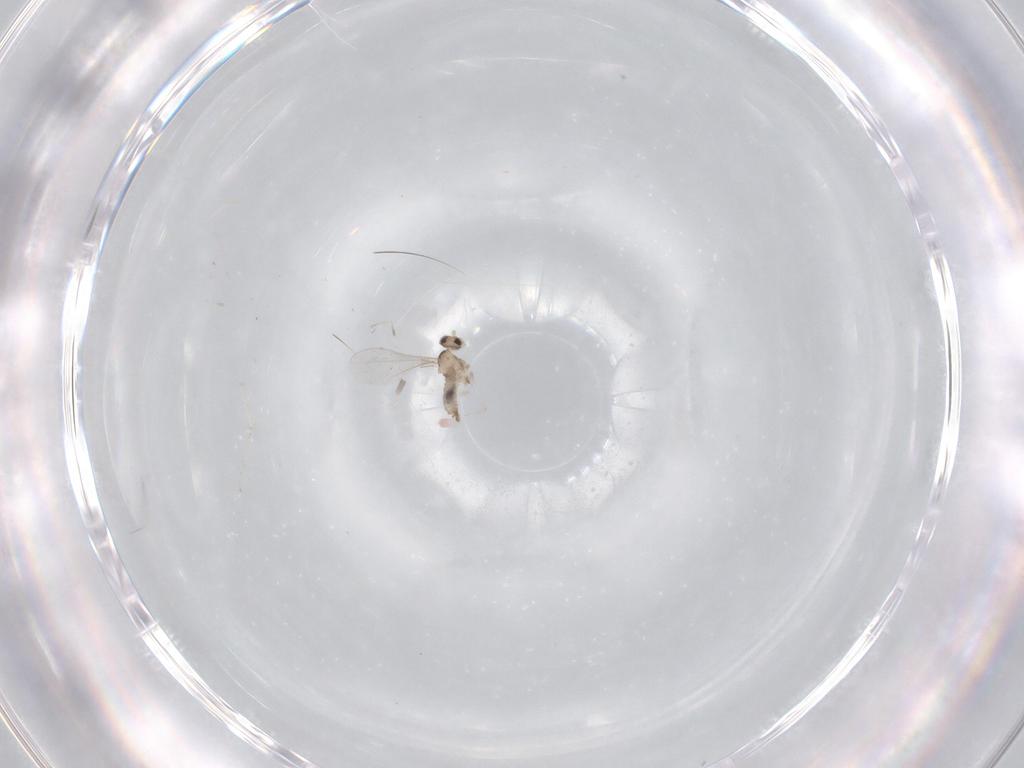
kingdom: Animalia
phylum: Arthropoda
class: Insecta
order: Diptera
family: Cecidomyiidae
